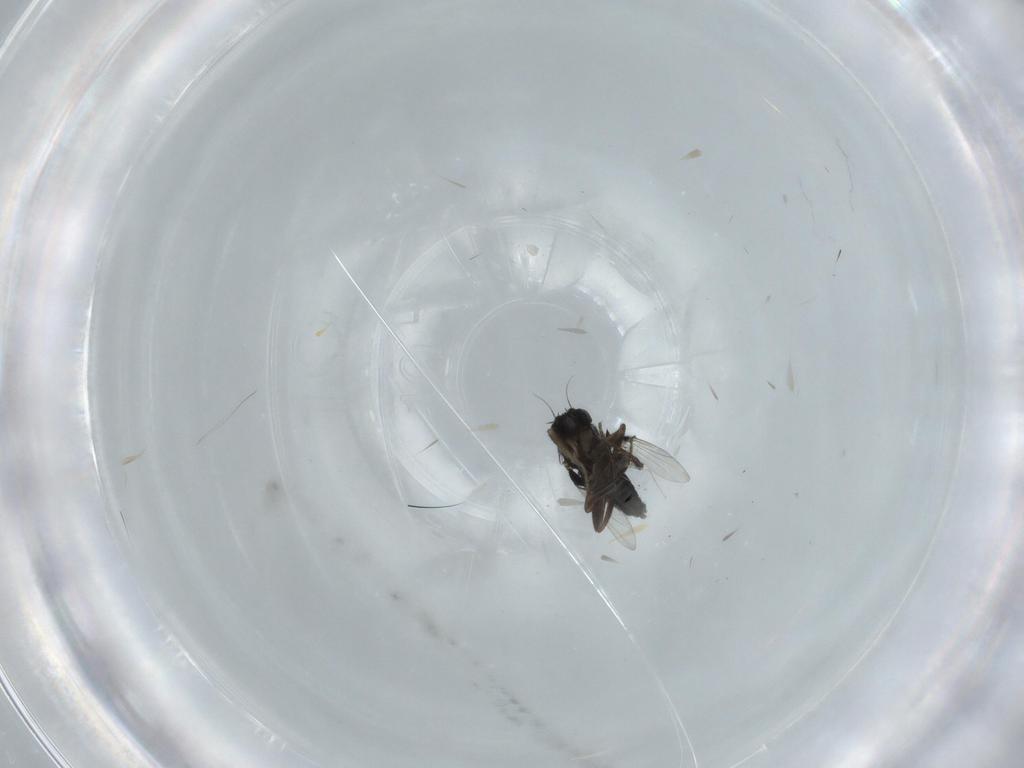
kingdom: Animalia
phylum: Arthropoda
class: Insecta
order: Diptera
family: Phoridae
